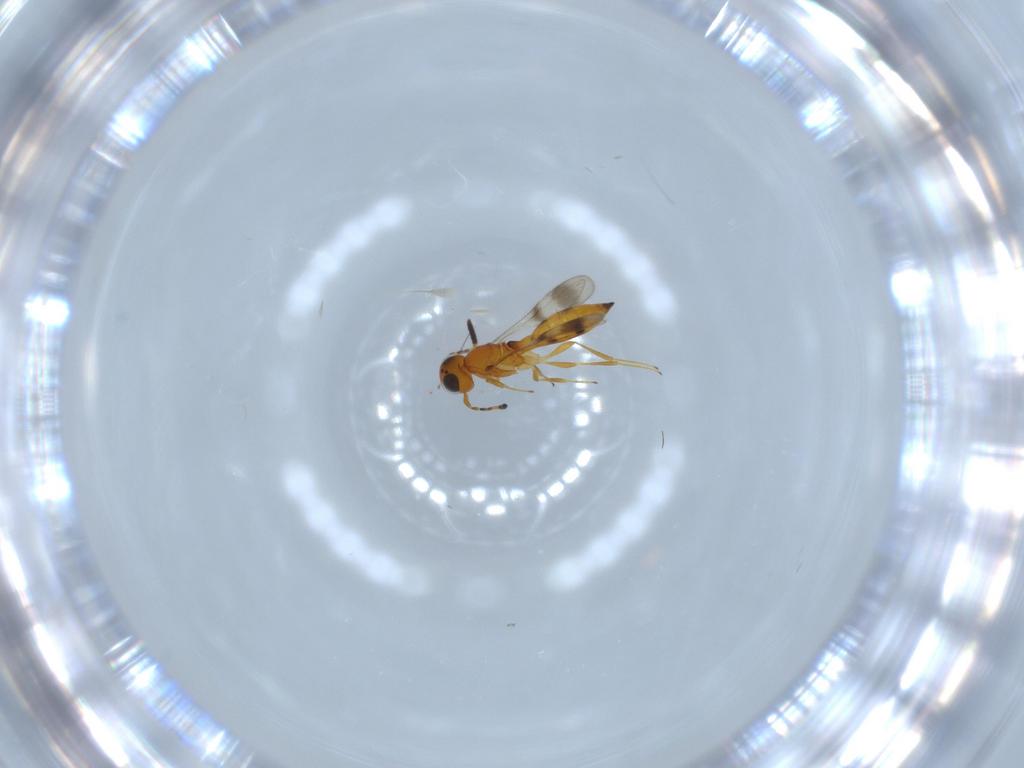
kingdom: Animalia
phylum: Arthropoda
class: Insecta
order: Hymenoptera
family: Scelionidae
